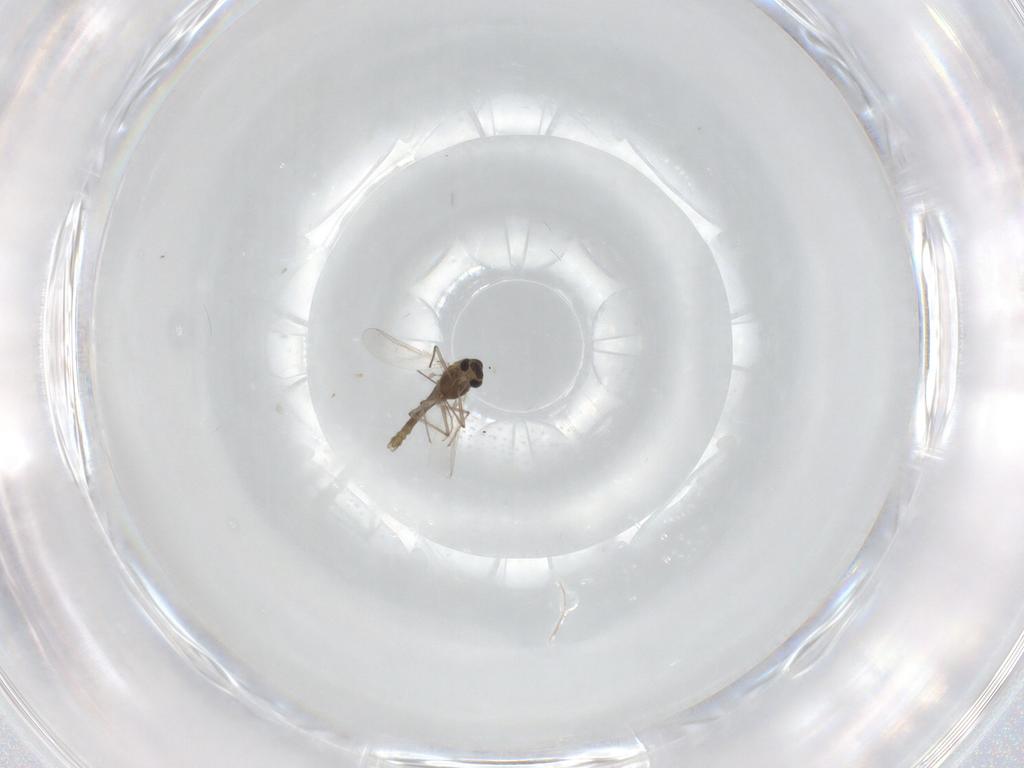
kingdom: Animalia
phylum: Arthropoda
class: Insecta
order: Diptera
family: Chironomidae
